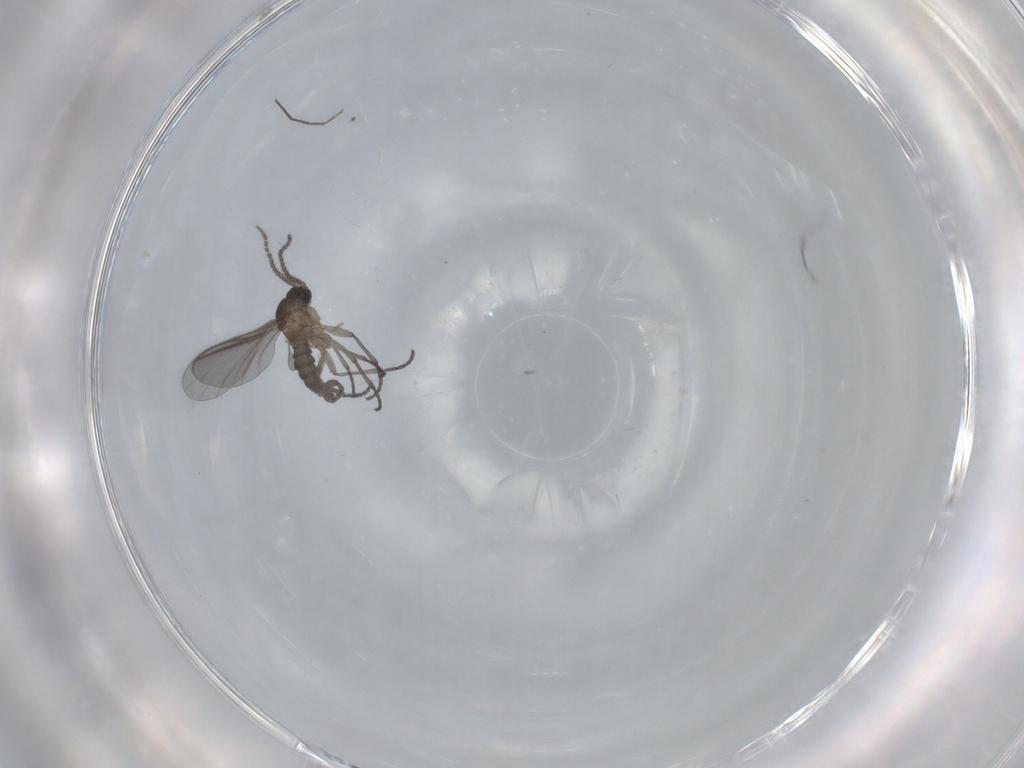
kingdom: Animalia
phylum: Arthropoda
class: Insecta
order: Diptera
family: Sciaridae
